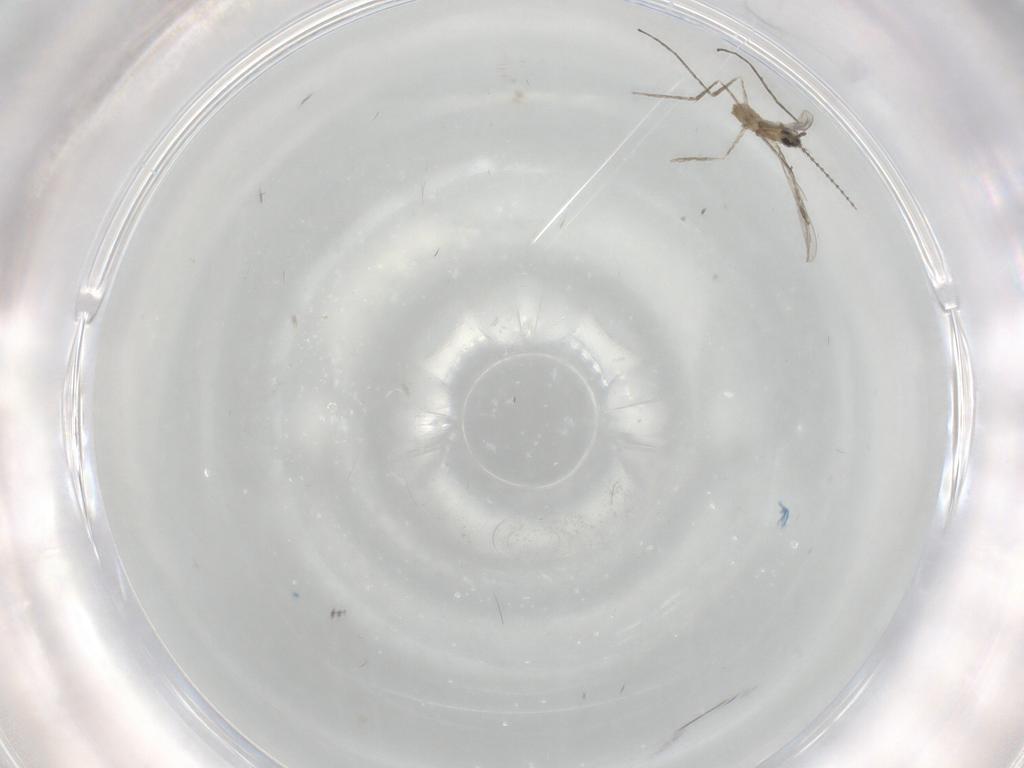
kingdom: Animalia
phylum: Arthropoda
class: Insecta
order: Diptera
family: Cecidomyiidae
